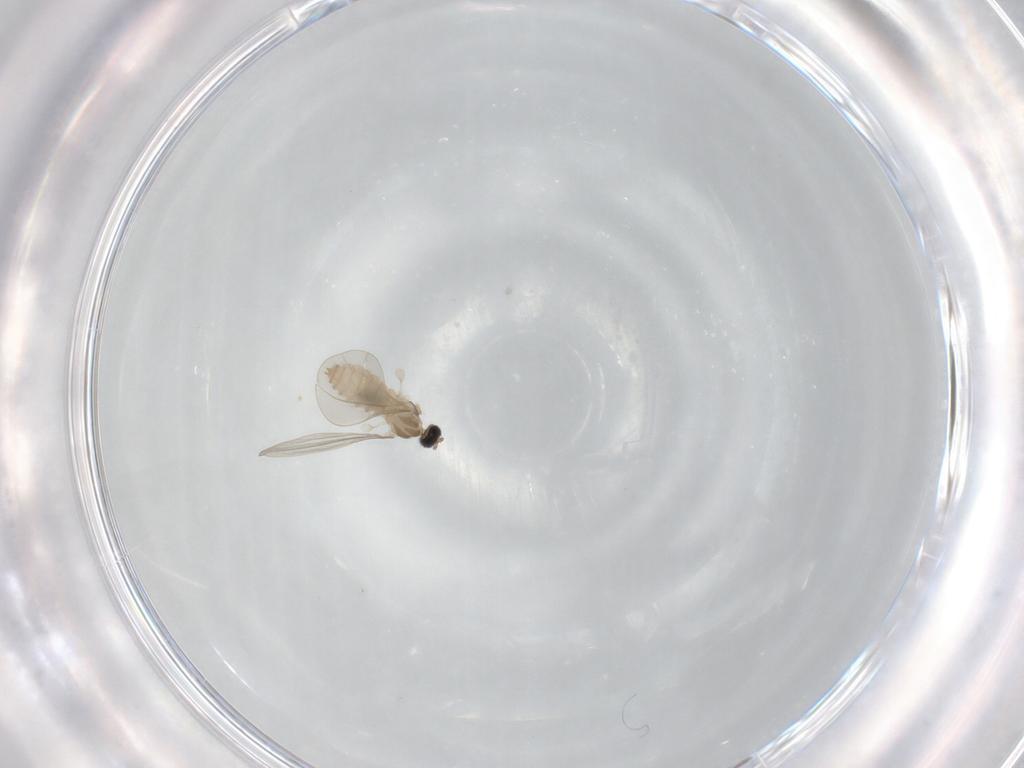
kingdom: Animalia
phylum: Arthropoda
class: Insecta
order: Diptera
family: Cecidomyiidae
